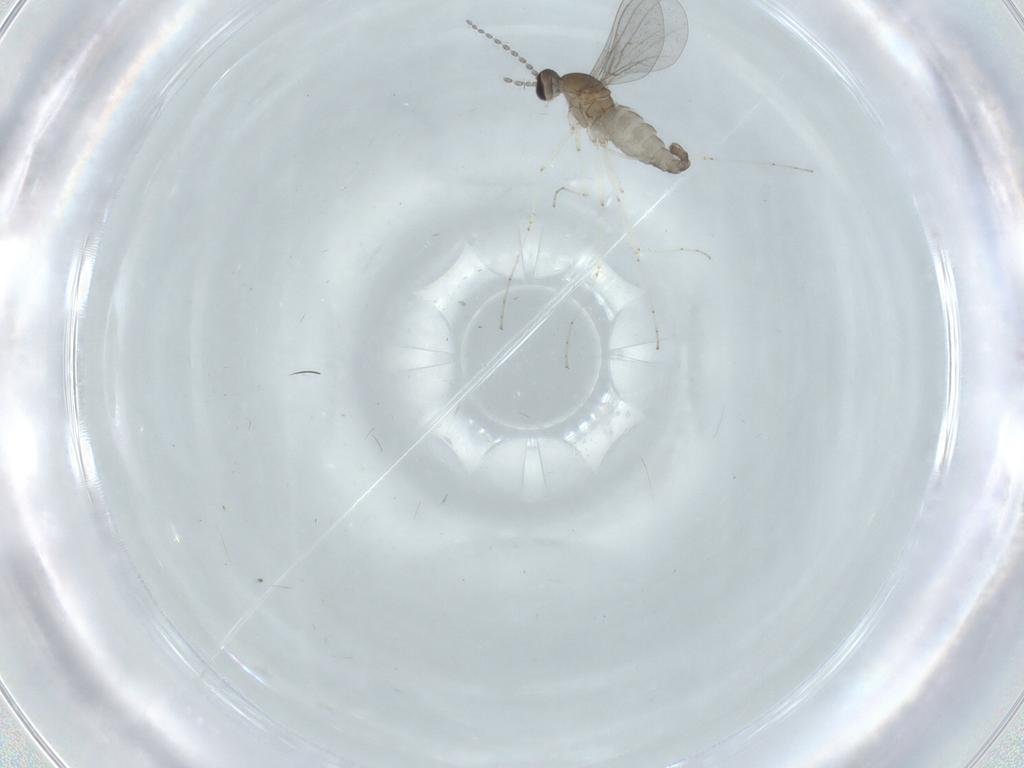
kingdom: Animalia
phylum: Arthropoda
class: Insecta
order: Diptera
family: Cecidomyiidae
